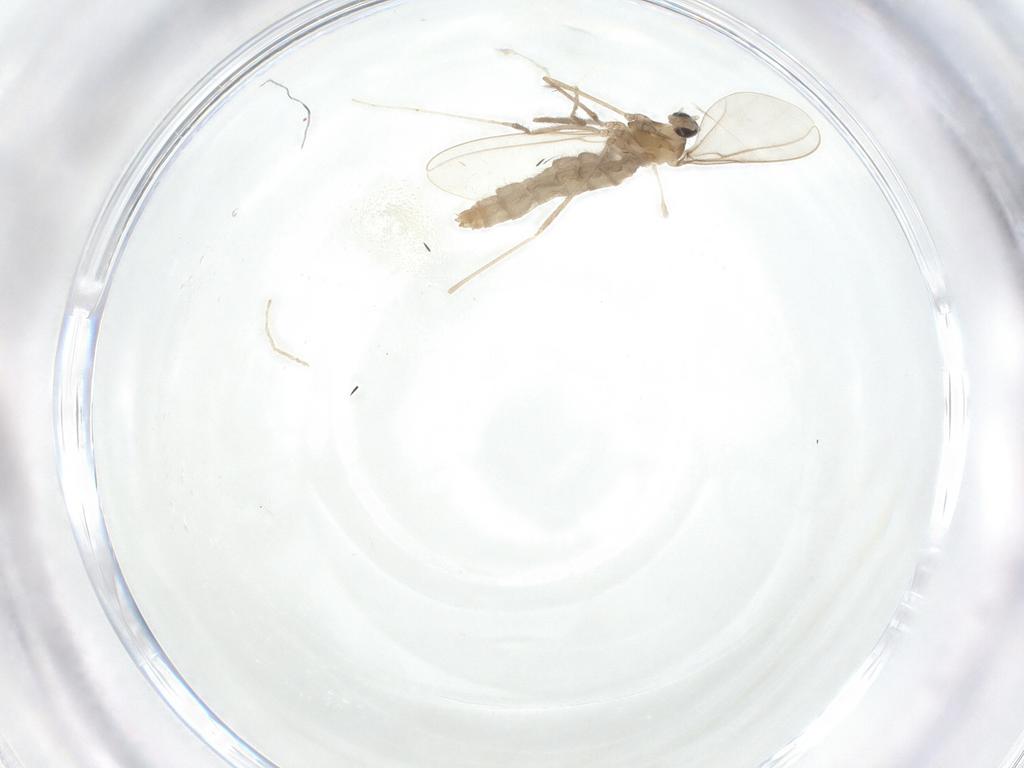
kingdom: Animalia
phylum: Arthropoda
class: Insecta
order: Diptera
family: Cecidomyiidae
